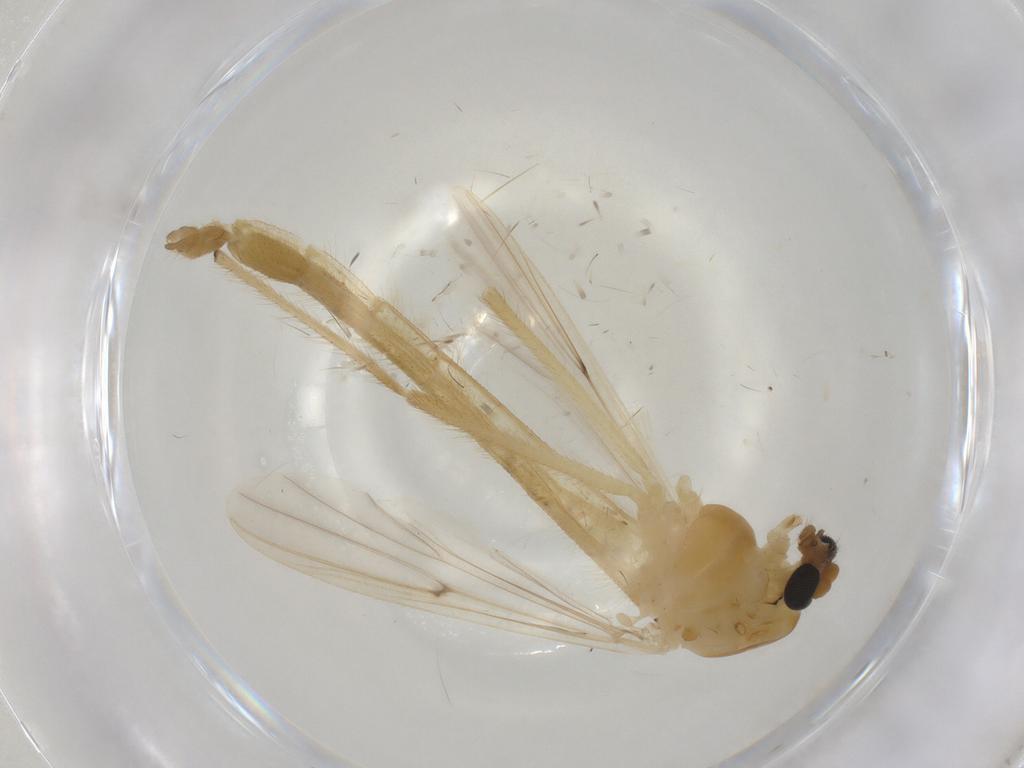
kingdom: Animalia
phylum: Arthropoda
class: Insecta
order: Diptera
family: Chironomidae
